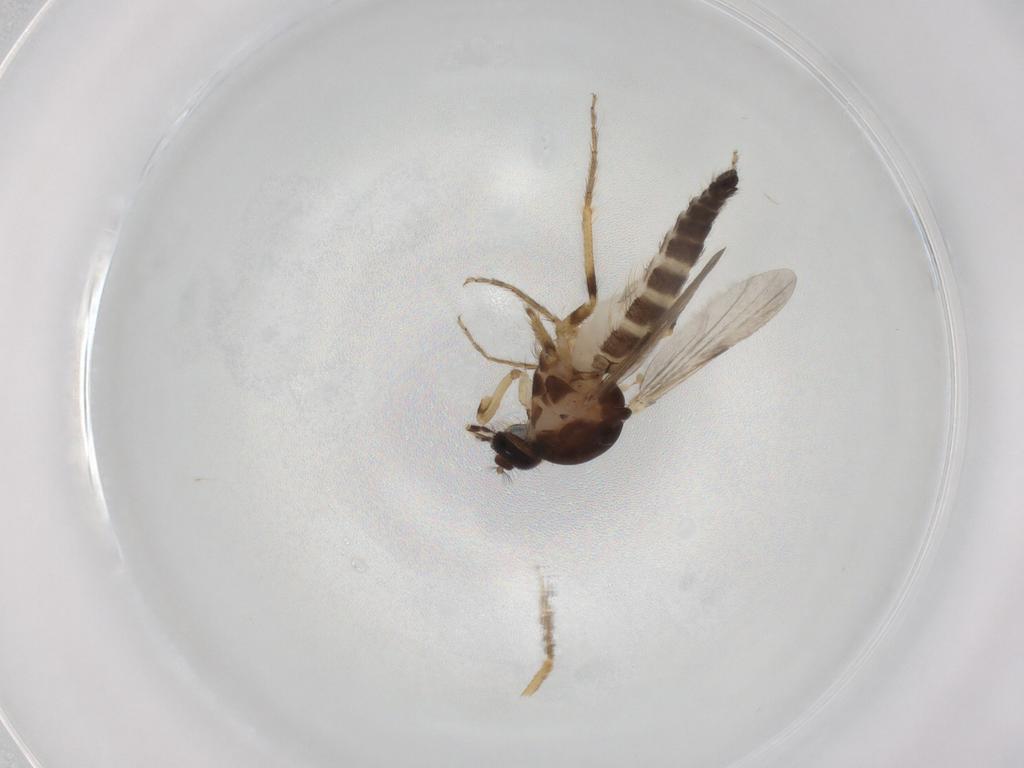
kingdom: Animalia
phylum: Arthropoda
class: Insecta
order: Diptera
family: Ceratopogonidae
